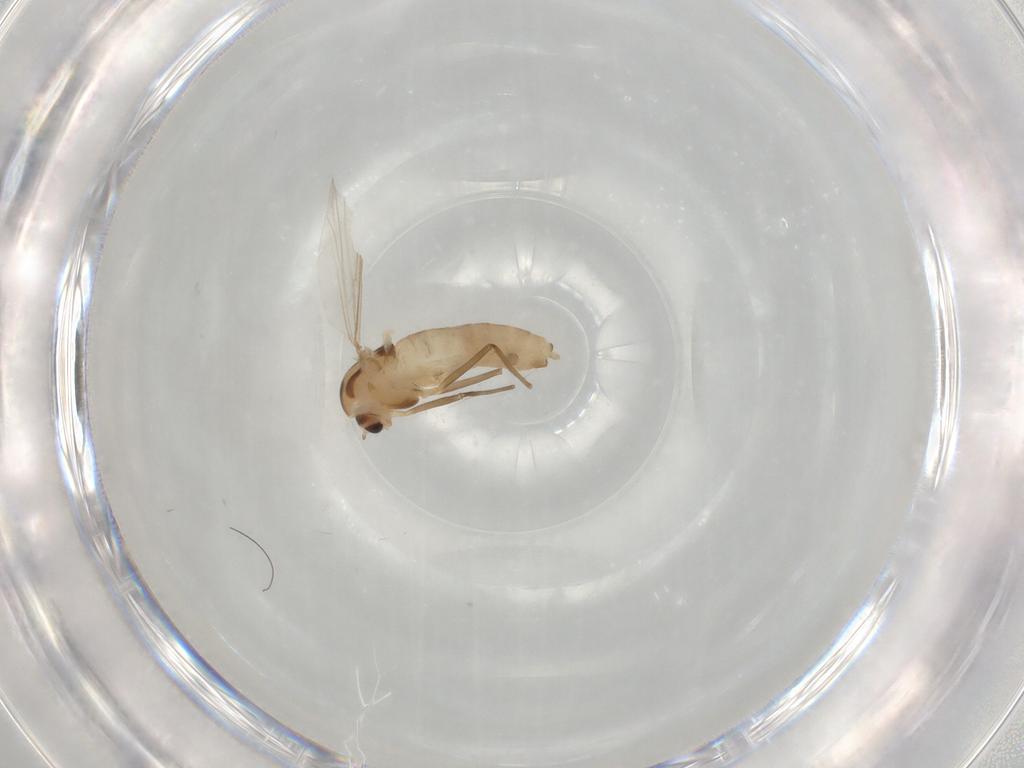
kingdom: Animalia
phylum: Arthropoda
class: Insecta
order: Diptera
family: Chironomidae
